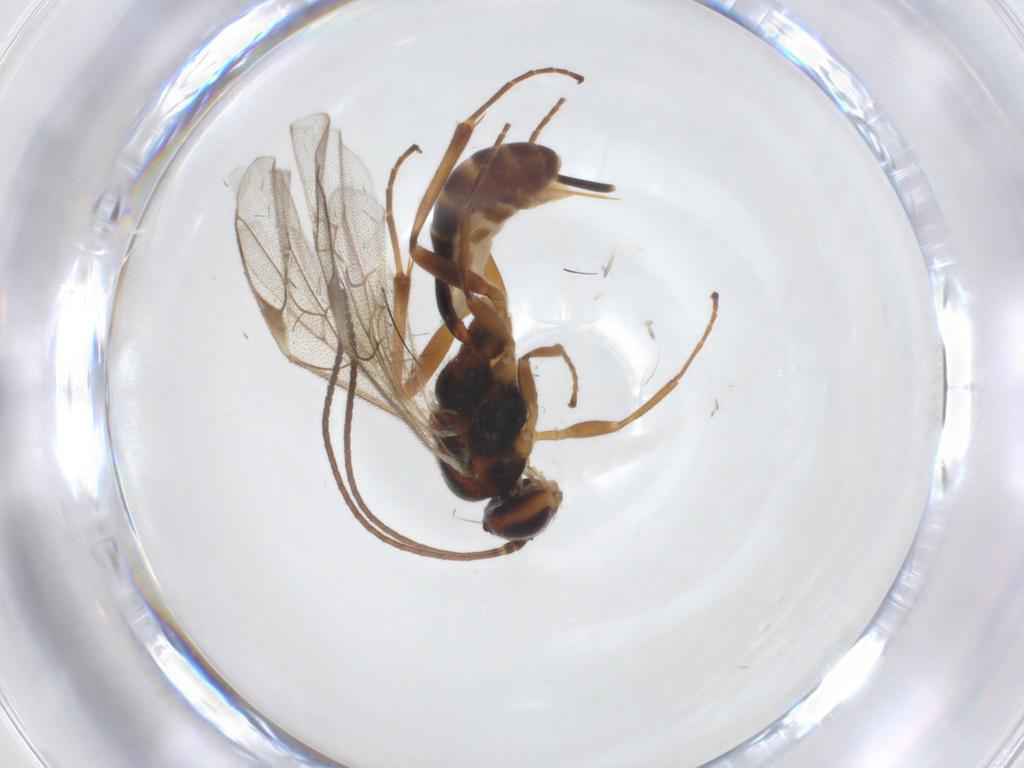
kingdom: Animalia
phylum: Arthropoda
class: Insecta
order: Hymenoptera
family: Ichneumonidae
